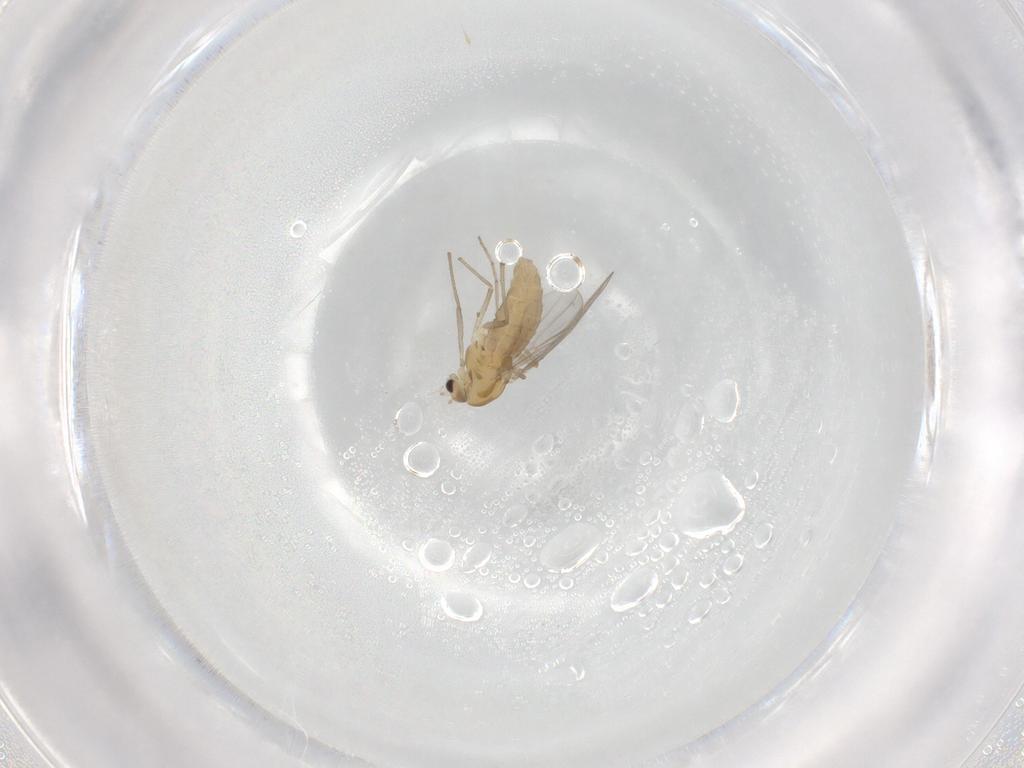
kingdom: Animalia
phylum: Arthropoda
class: Insecta
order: Diptera
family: Chironomidae
